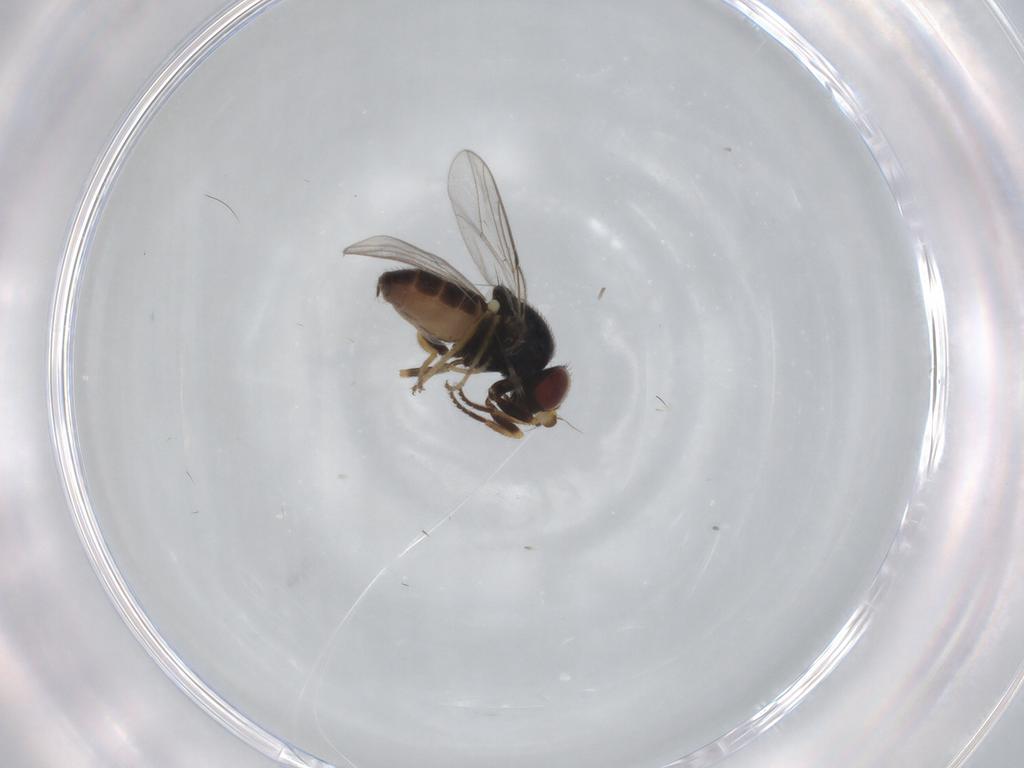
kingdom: Animalia
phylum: Arthropoda
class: Insecta
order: Diptera
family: Chloropidae
